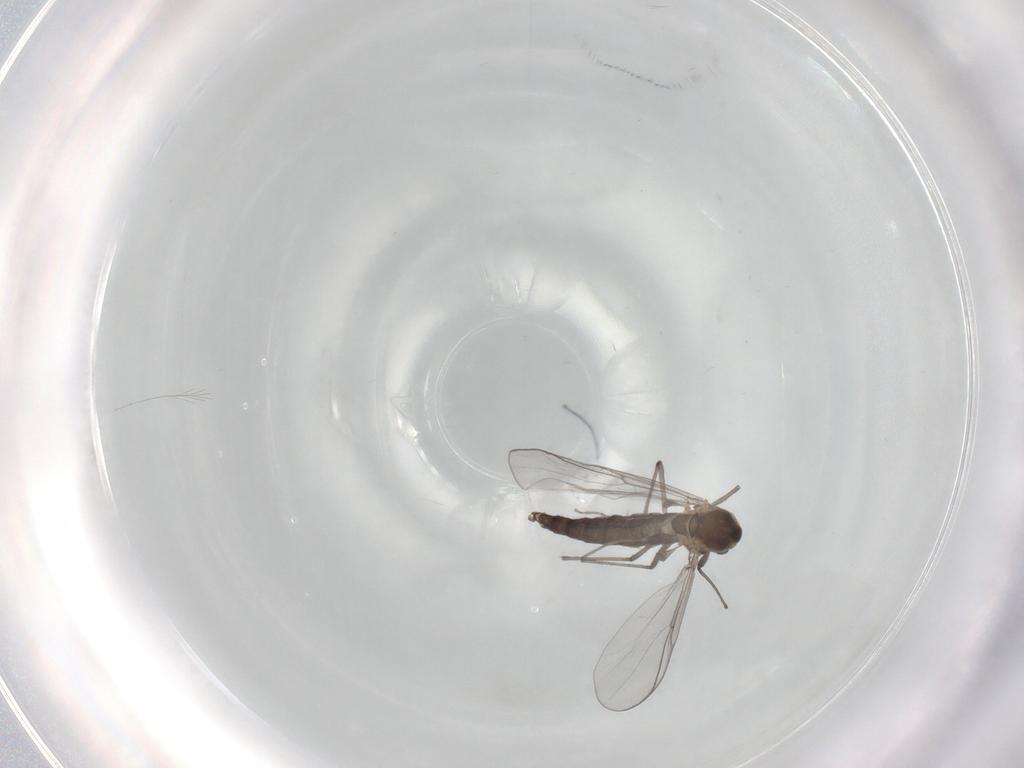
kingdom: Animalia
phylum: Arthropoda
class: Insecta
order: Diptera
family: Chironomidae
